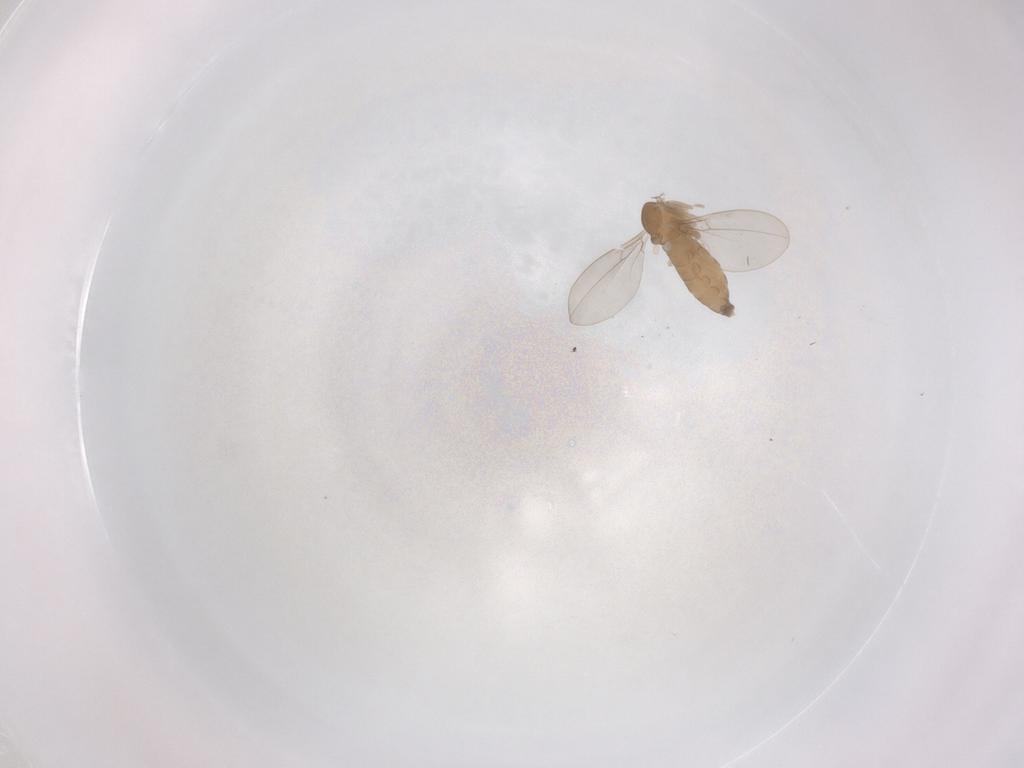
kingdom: Animalia
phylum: Arthropoda
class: Insecta
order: Diptera
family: Cecidomyiidae
